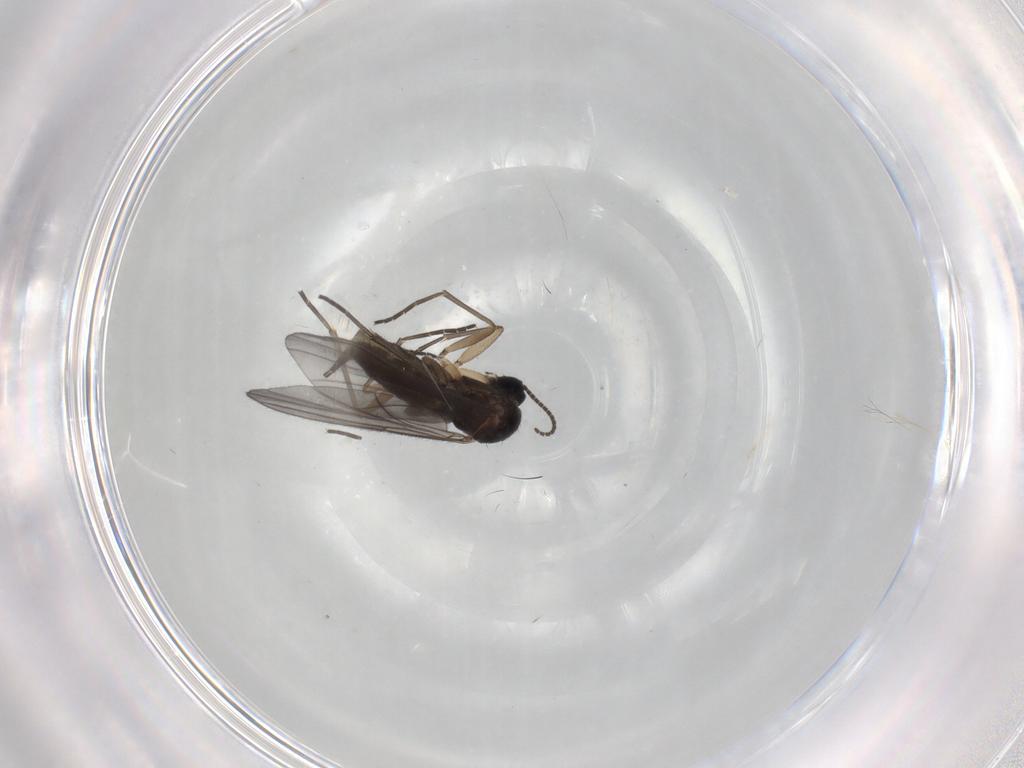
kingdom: Animalia
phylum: Arthropoda
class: Insecta
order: Diptera
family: Sciaridae
